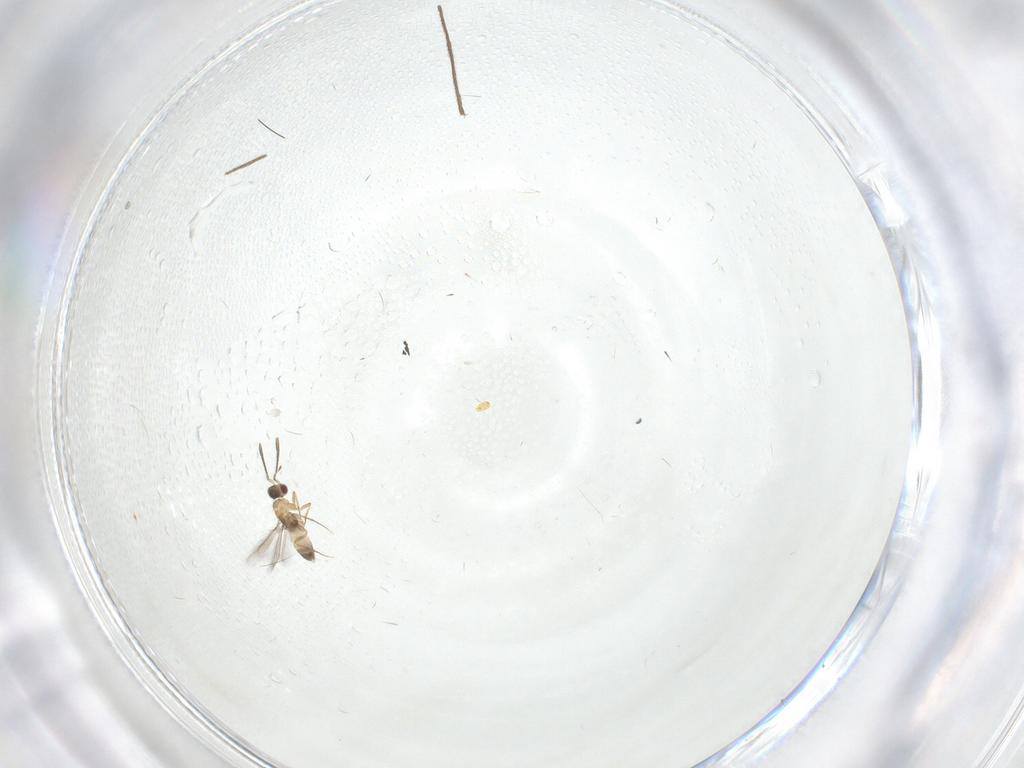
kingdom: Animalia
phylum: Arthropoda
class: Insecta
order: Hymenoptera
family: Mymaridae
